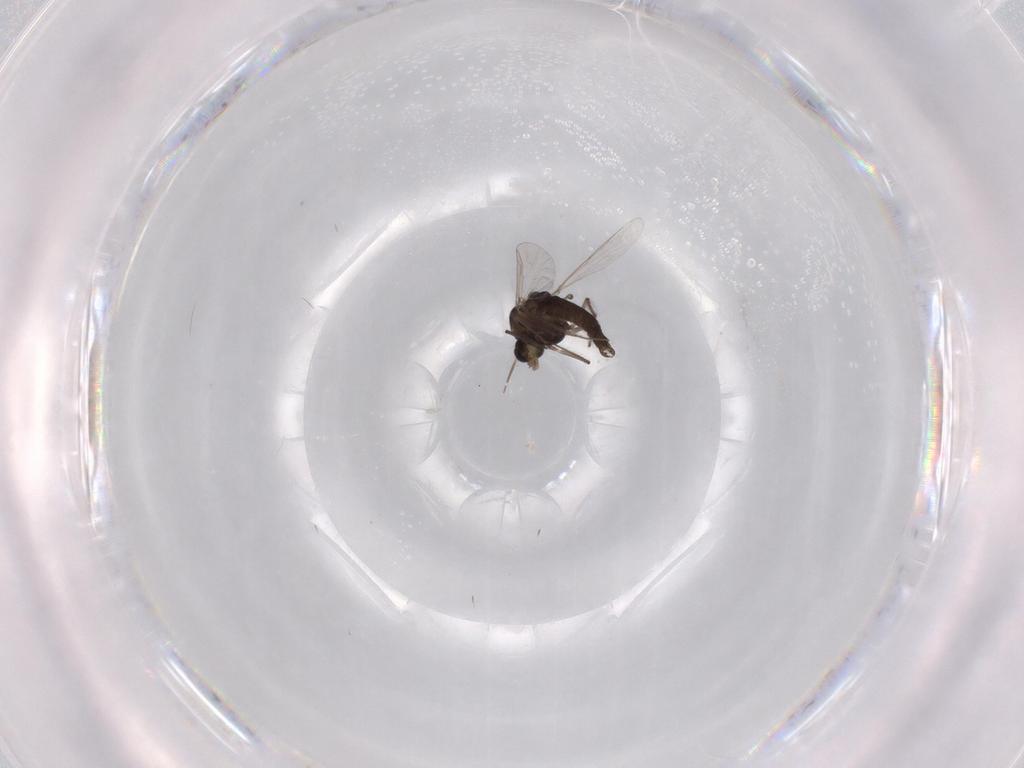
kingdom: Animalia
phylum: Arthropoda
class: Insecta
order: Diptera
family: Chironomidae
